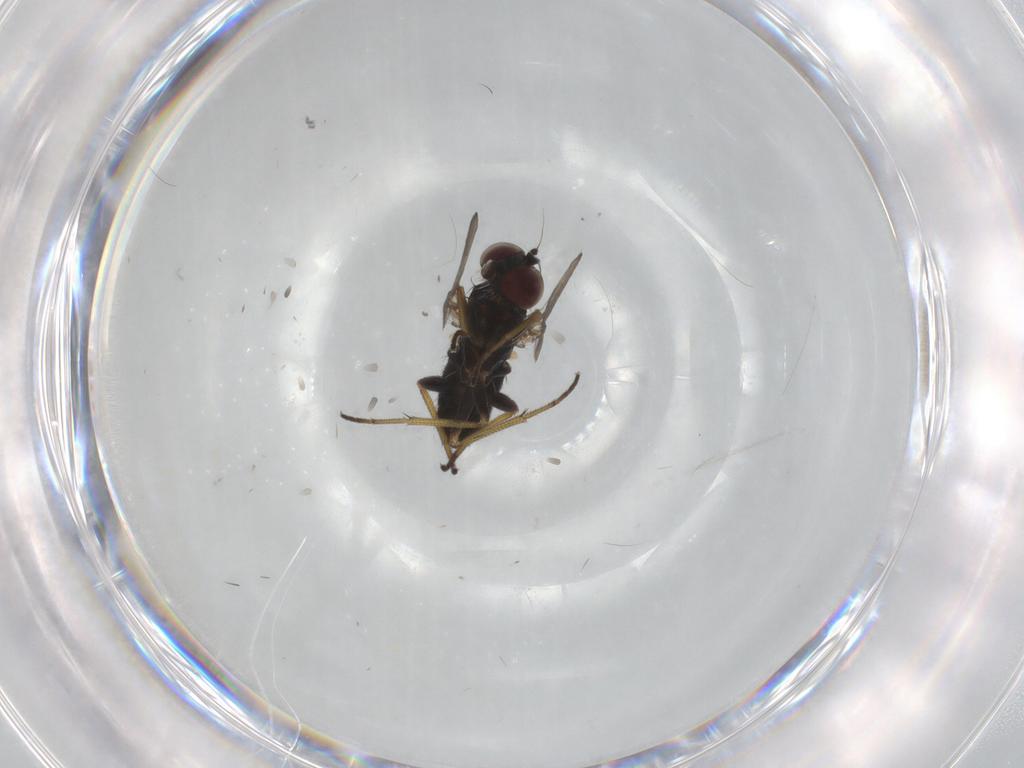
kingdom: Animalia
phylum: Arthropoda
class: Insecta
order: Diptera
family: Dolichopodidae
